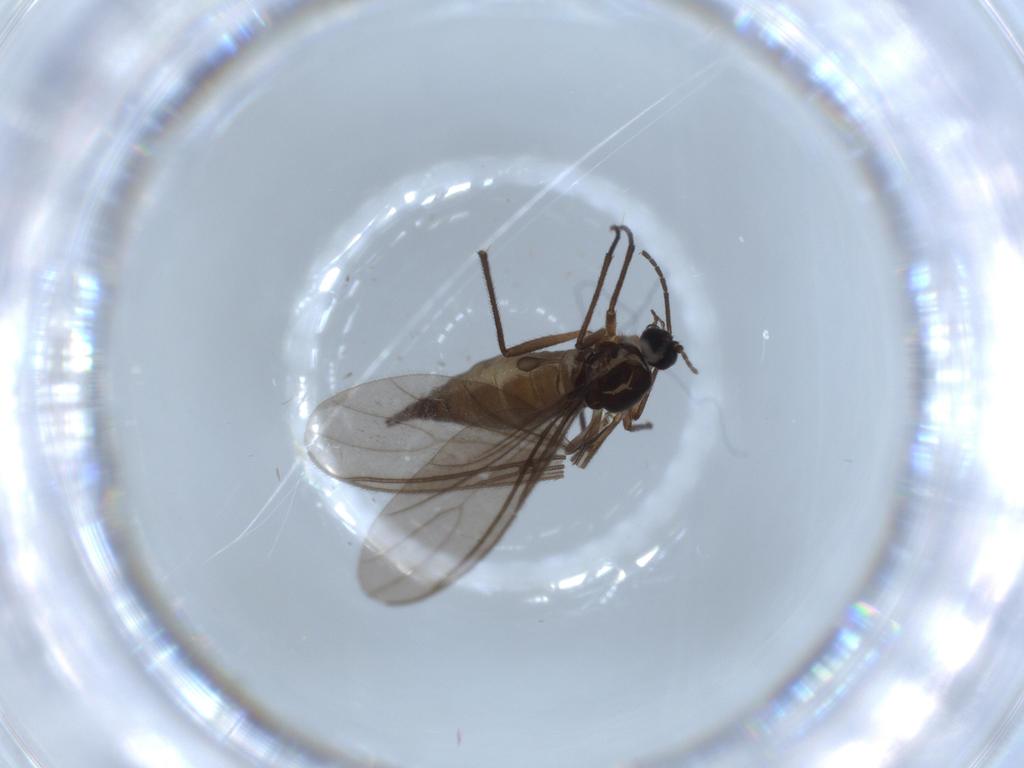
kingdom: Animalia
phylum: Arthropoda
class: Insecta
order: Diptera
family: Sciaridae
